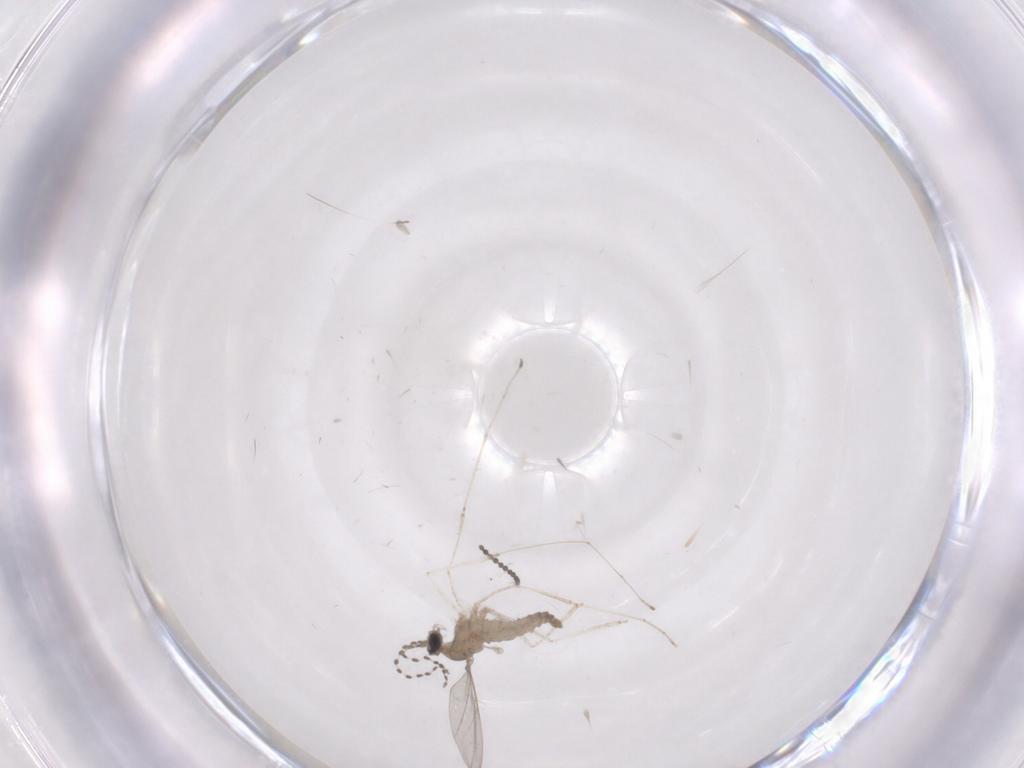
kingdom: Animalia
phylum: Arthropoda
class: Insecta
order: Diptera
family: Cecidomyiidae
